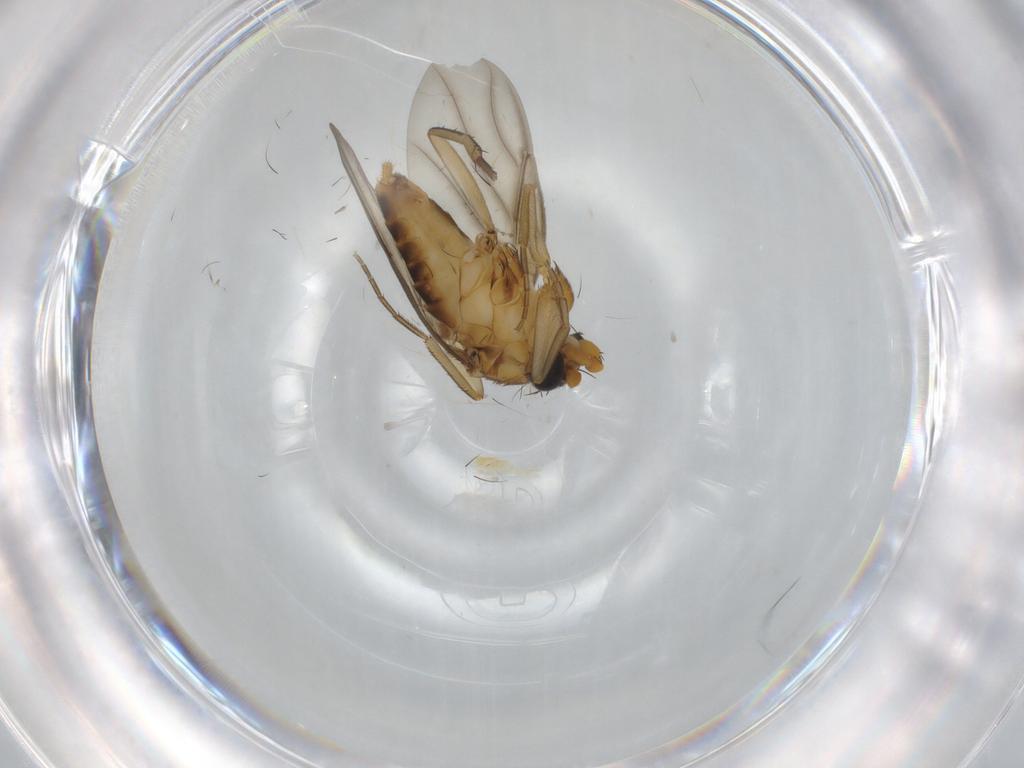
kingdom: Animalia
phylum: Arthropoda
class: Insecta
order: Diptera
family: Cecidomyiidae
